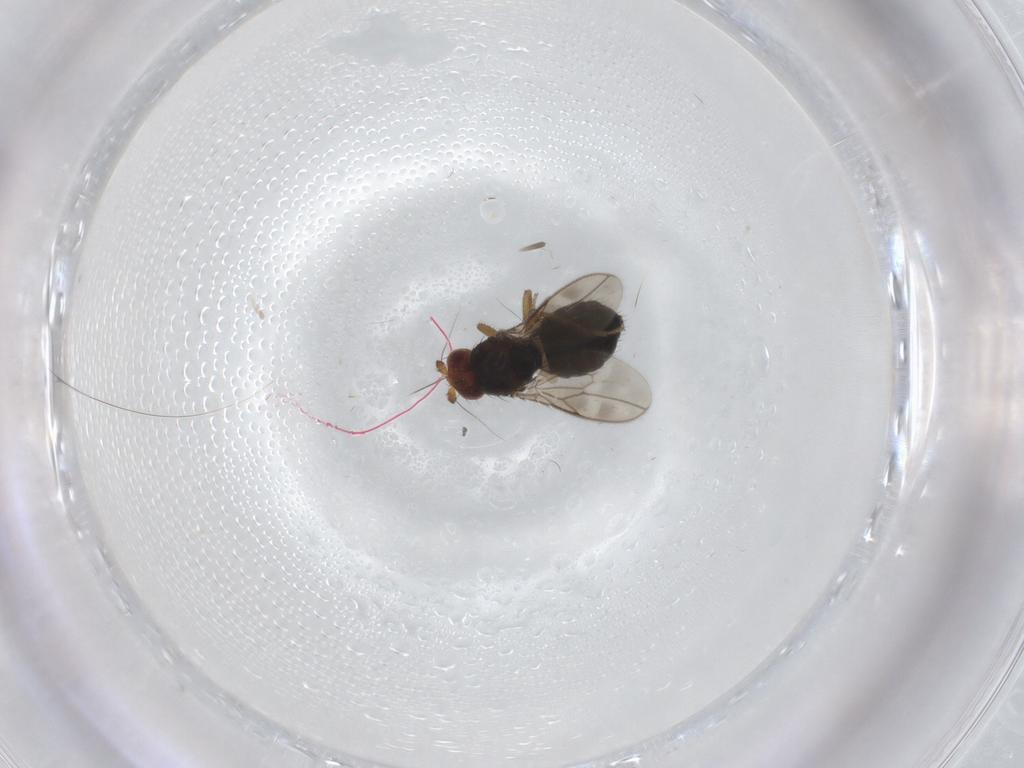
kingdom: Animalia
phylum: Arthropoda
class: Insecta
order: Diptera
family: Sphaeroceridae
